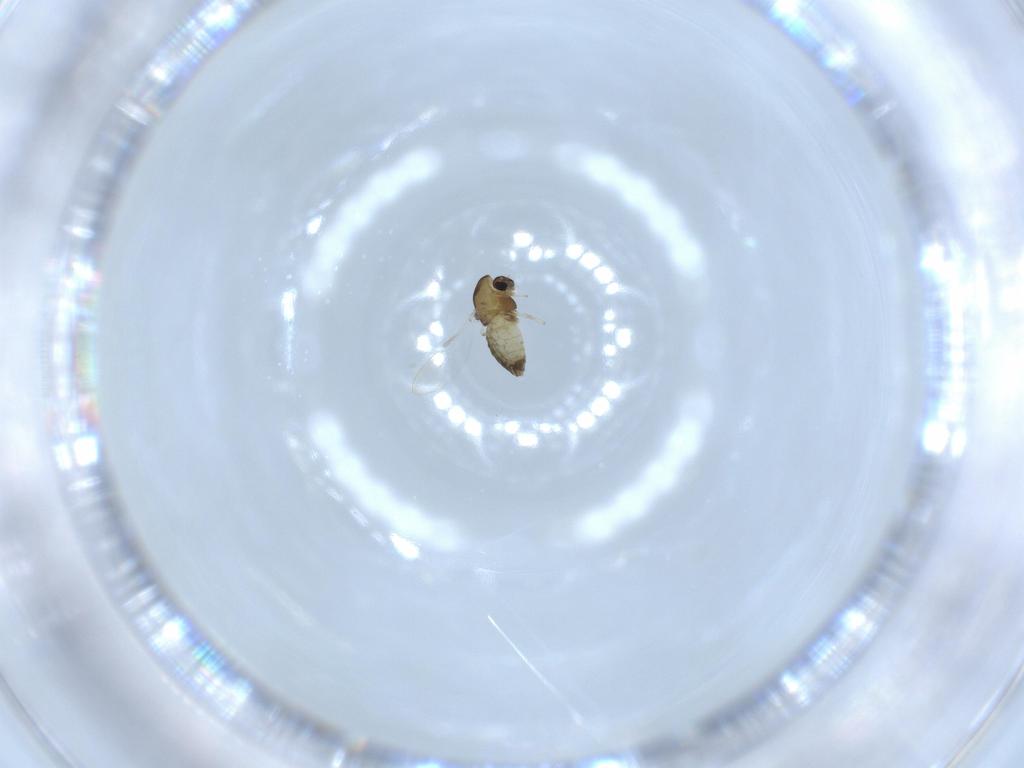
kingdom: Animalia
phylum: Arthropoda
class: Insecta
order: Diptera
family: Chironomidae
